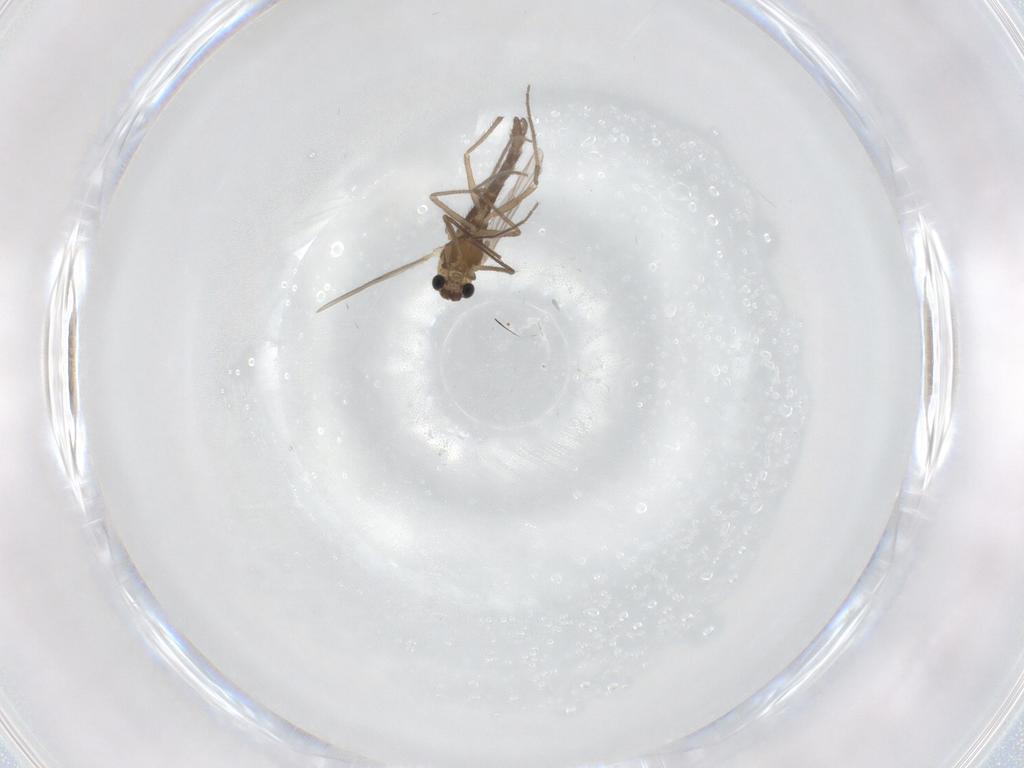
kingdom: Animalia
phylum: Arthropoda
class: Insecta
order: Diptera
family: Chironomidae
